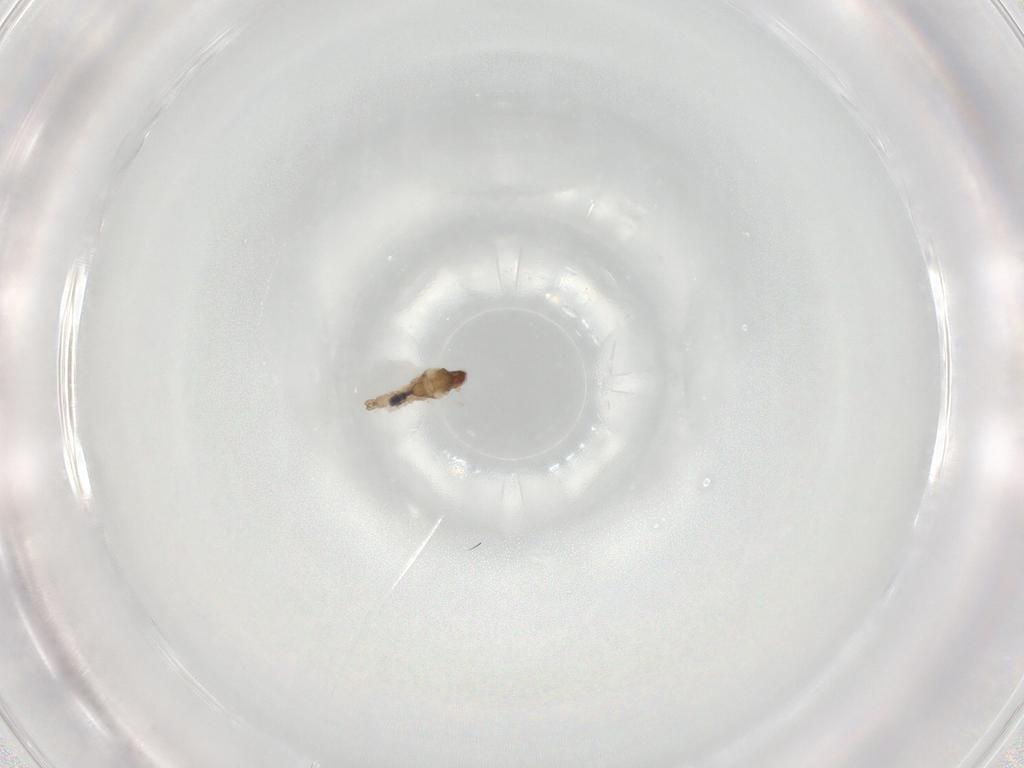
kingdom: Animalia
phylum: Arthropoda
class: Insecta
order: Diptera
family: Cecidomyiidae
